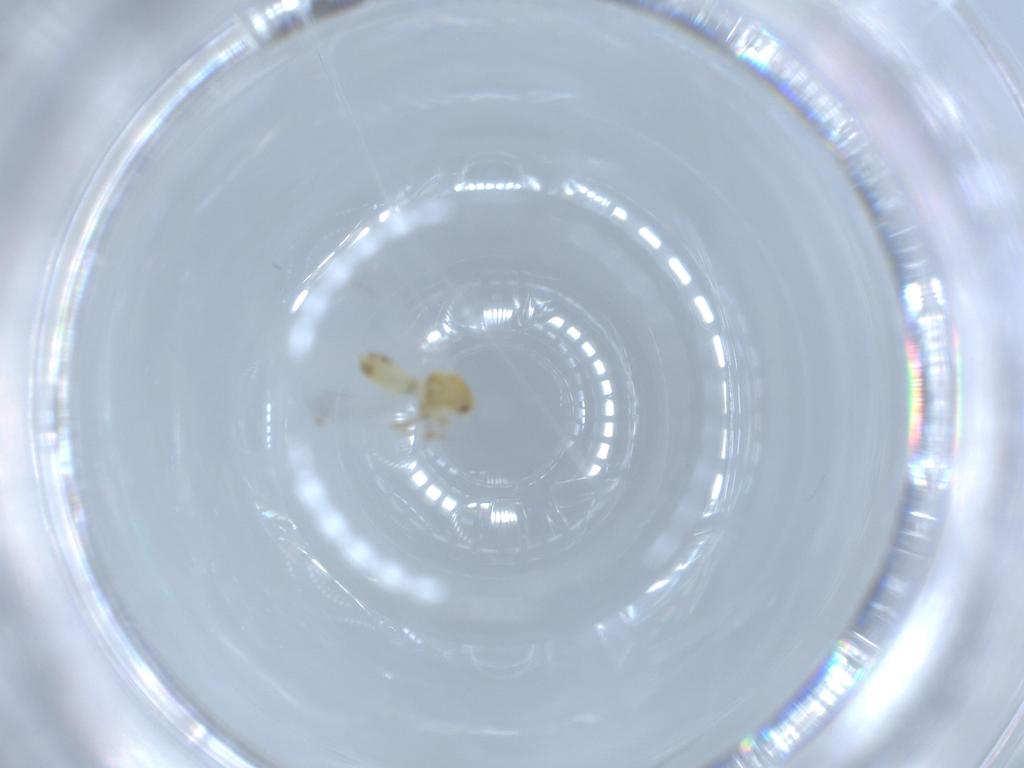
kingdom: Animalia
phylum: Arthropoda
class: Insecta
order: Hemiptera
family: Aleyrodidae
